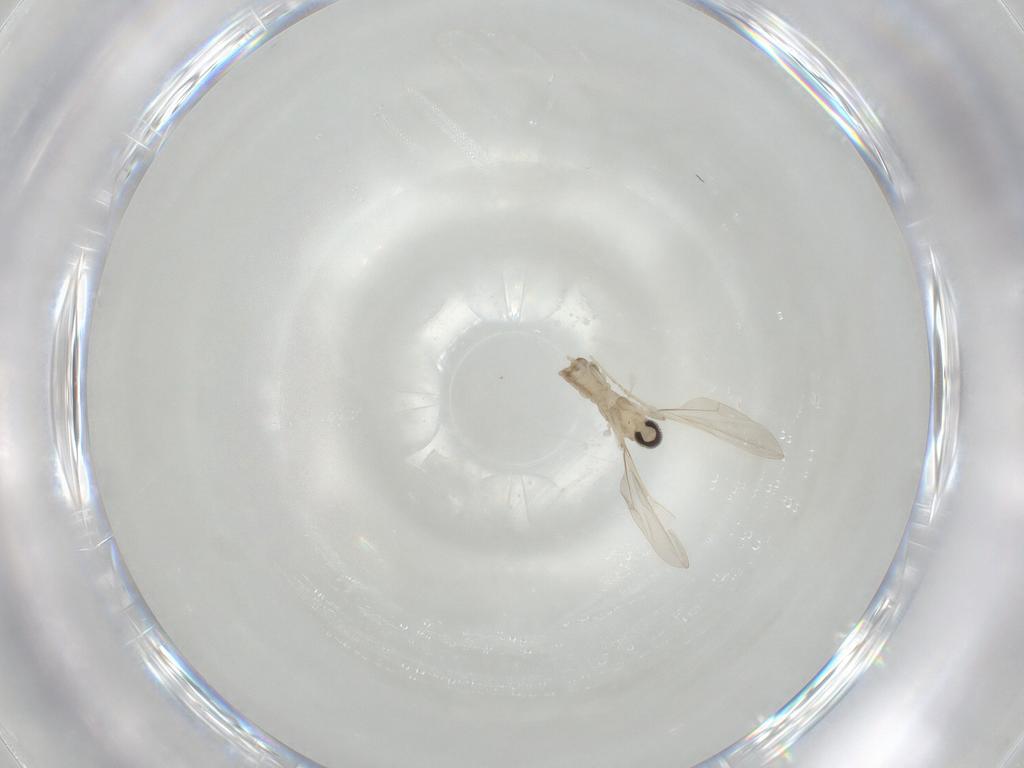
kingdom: Animalia
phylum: Arthropoda
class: Insecta
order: Diptera
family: Cecidomyiidae
